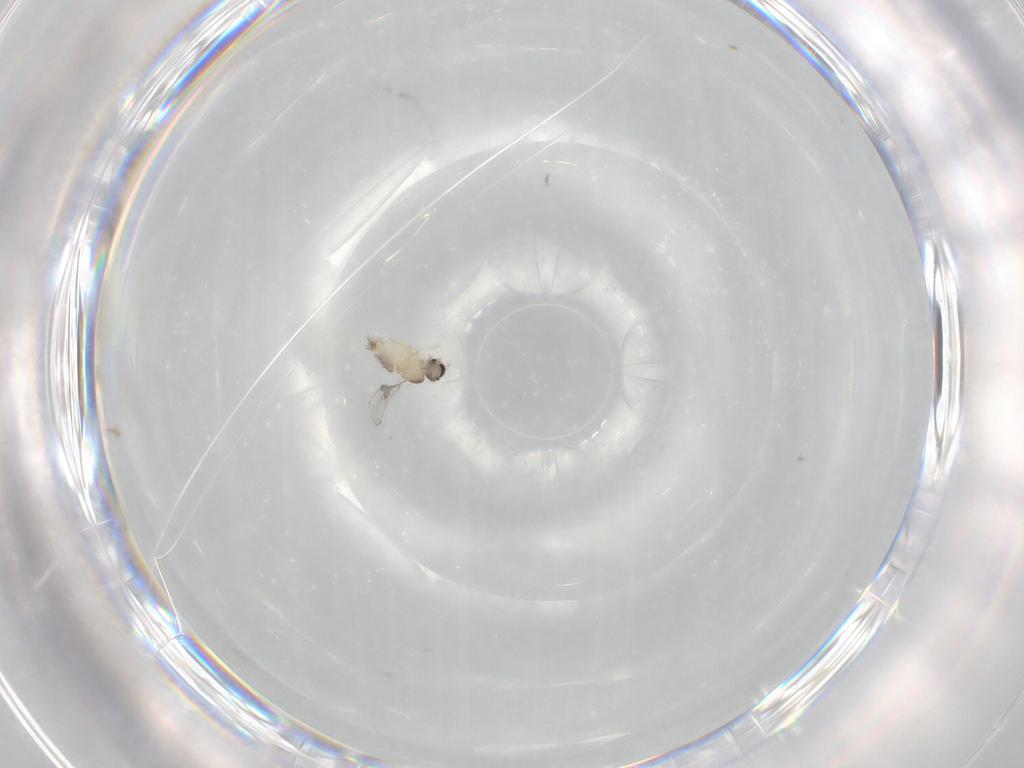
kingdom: Animalia
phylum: Arthropoda
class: Insecta
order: Diptera
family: Cecidomyiidae
